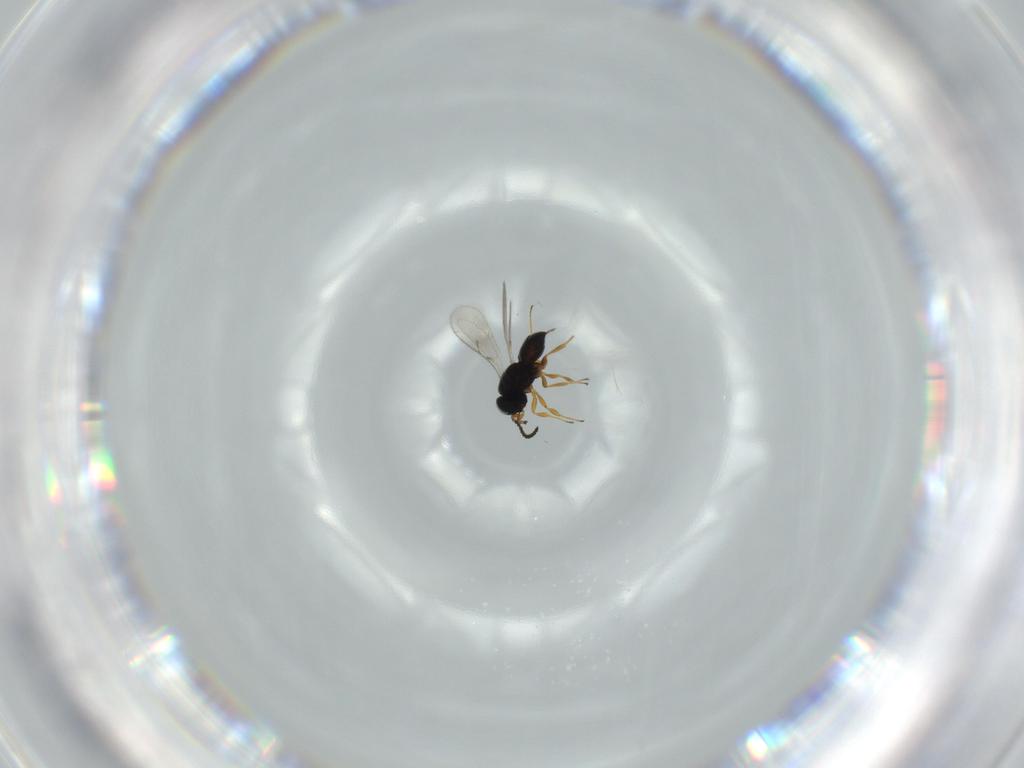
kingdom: Animalia
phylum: Arthropoda
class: Insecta
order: Hymenoptera
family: Scelionidae
